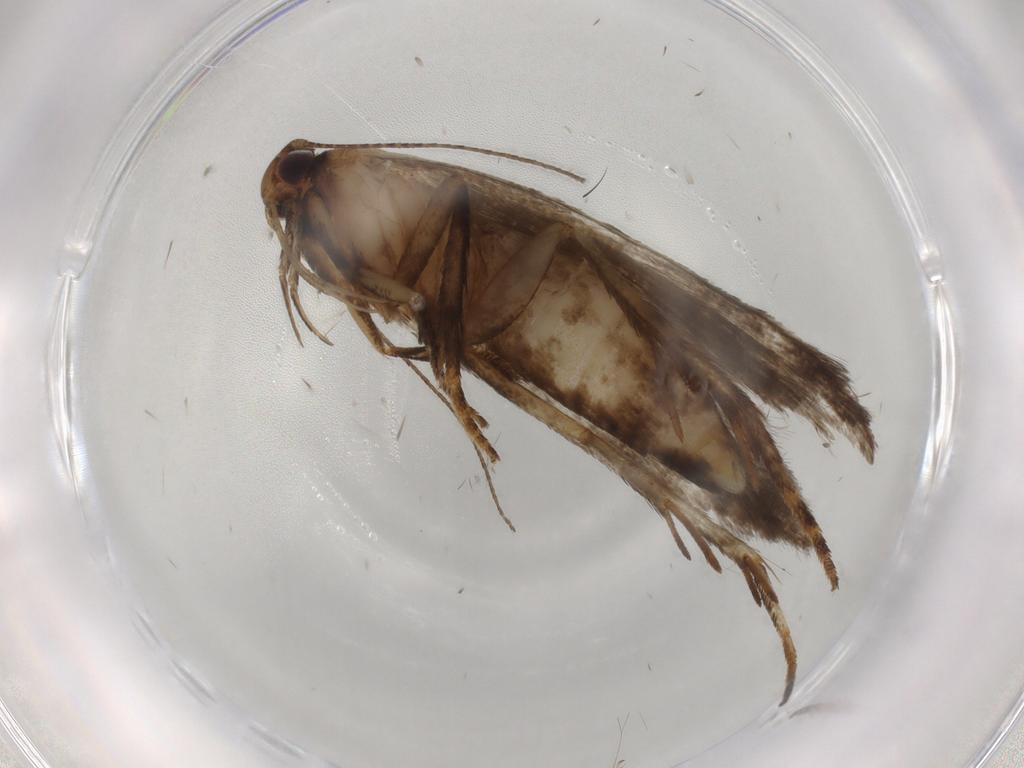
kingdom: Animalia
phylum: Arthropoda
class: Insecta
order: Lepidoptera
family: Gelechiidae
